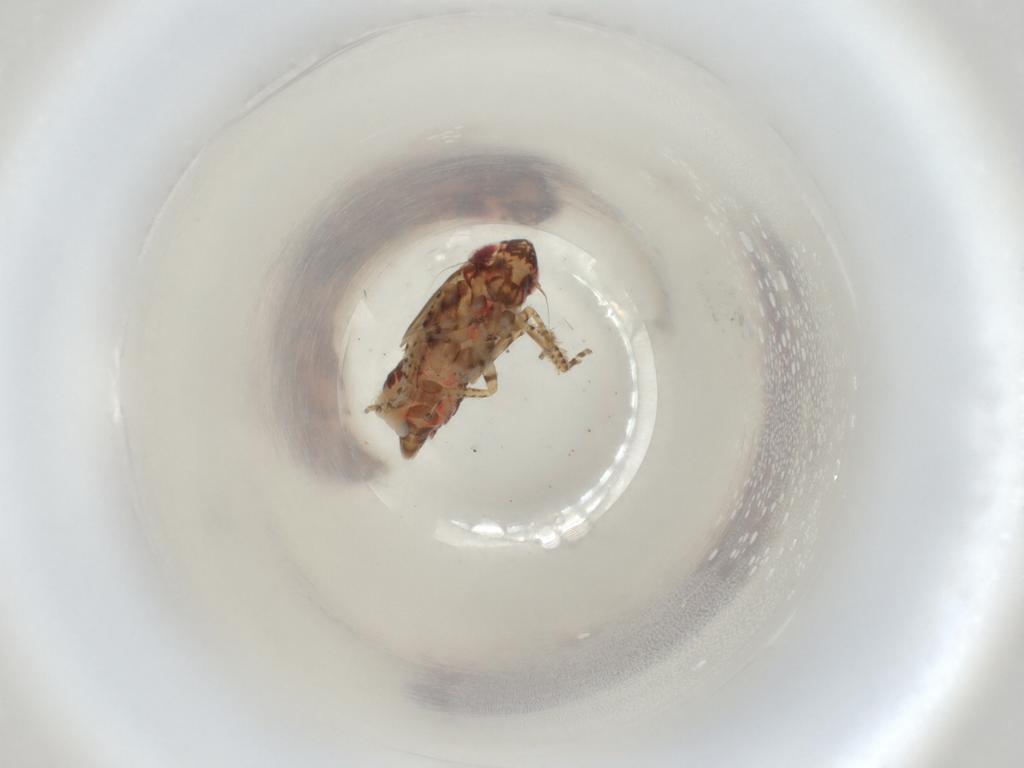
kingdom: Animalia
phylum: Arthropoda
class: Insecta
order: Hemiptera
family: Cicadellidae
